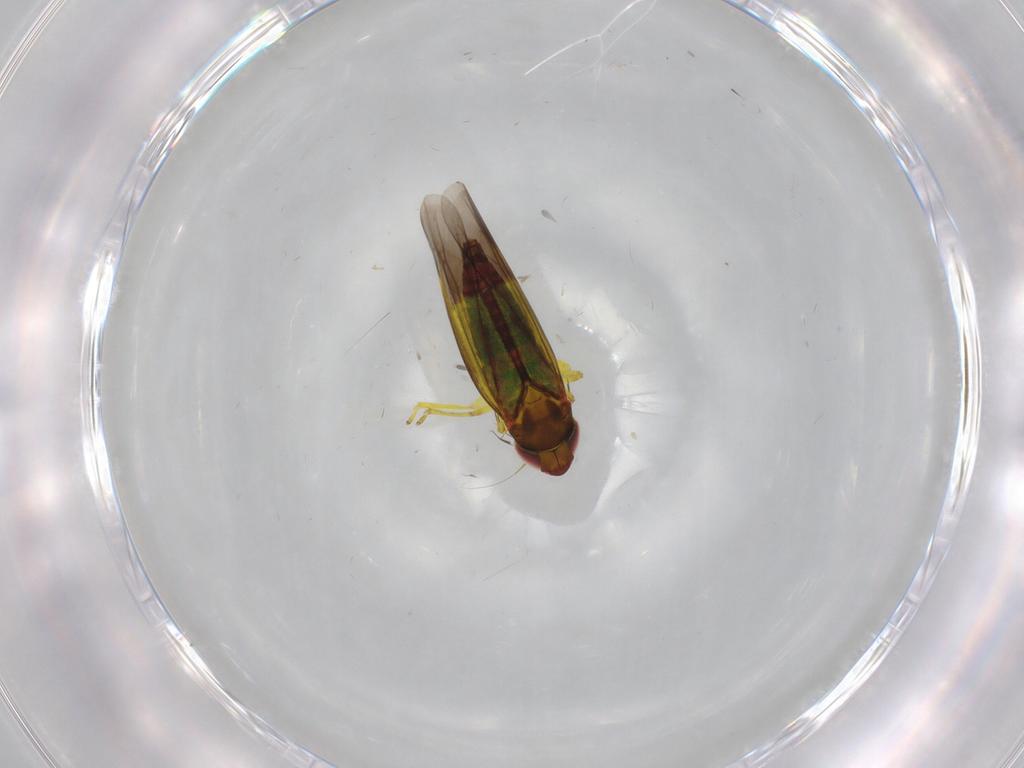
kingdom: Animalia
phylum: Arthropoda
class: Insecta
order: Hemiptera
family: Cicadellidae
